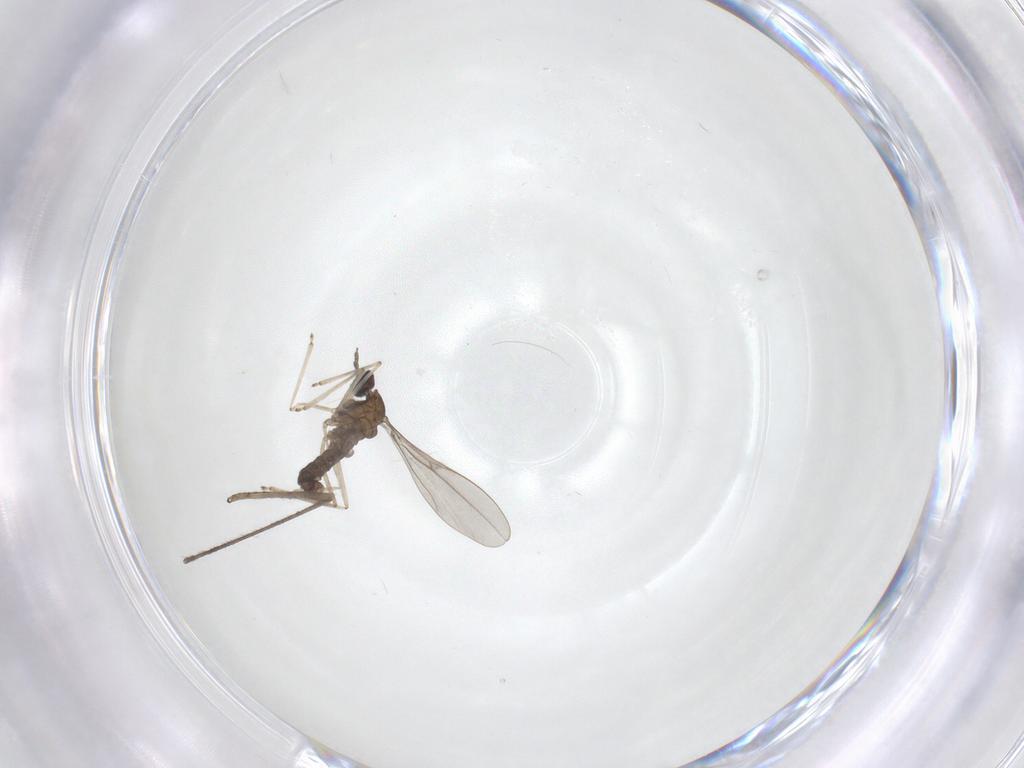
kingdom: Animalia
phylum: Arthropoda
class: Insecta
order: Diptera
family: Cecidomyiidae
